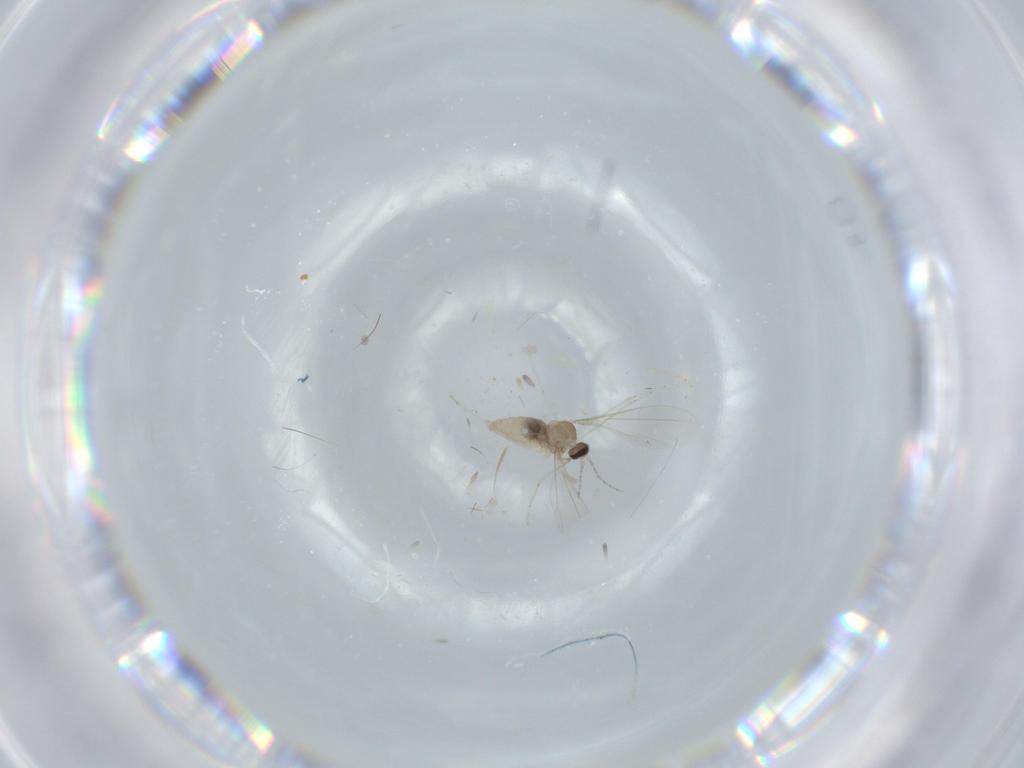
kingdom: Animalia
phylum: Arthropoda
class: Insecta
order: Diptera
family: Cecidomyiidae
